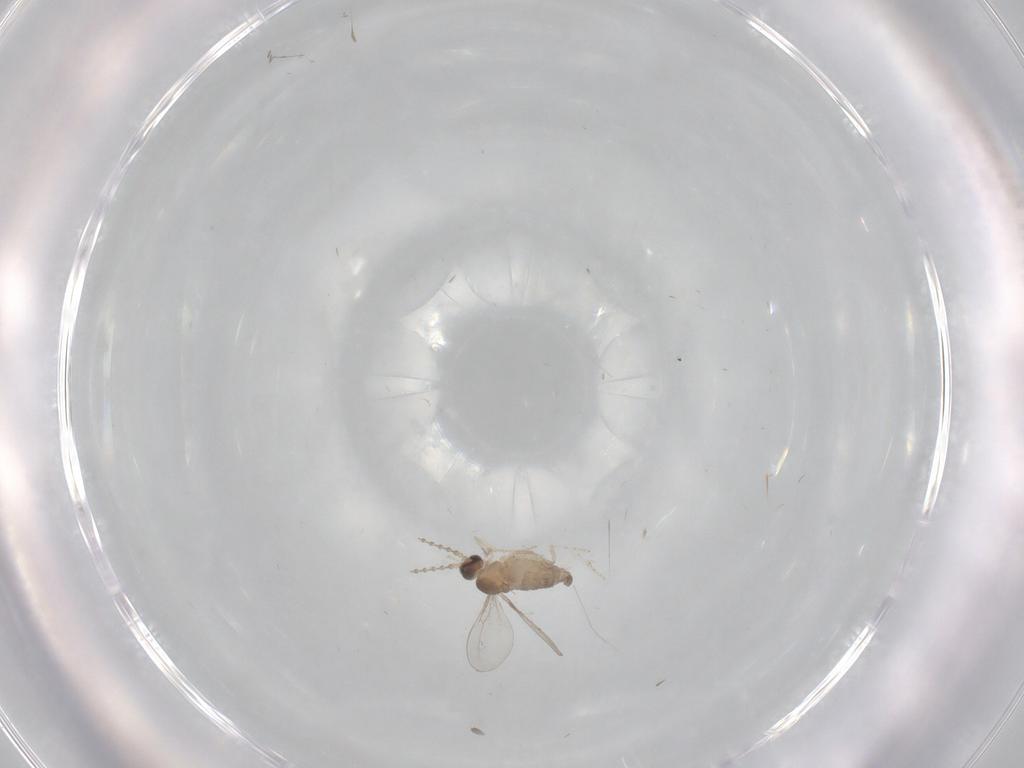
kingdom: Animalia
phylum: Arthropoda
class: Insecta
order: Diptera
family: Cecidomyiidae
